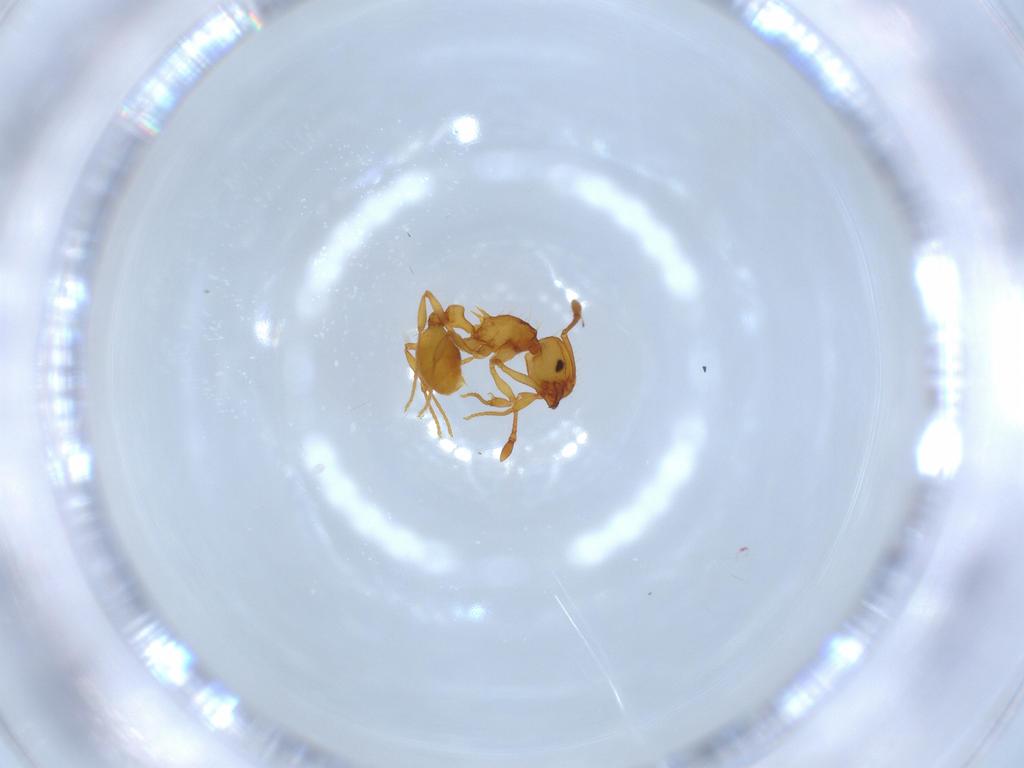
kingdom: Animalia
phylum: Arthropoda
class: Insecta
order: Hymenoptera
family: Formicidae
